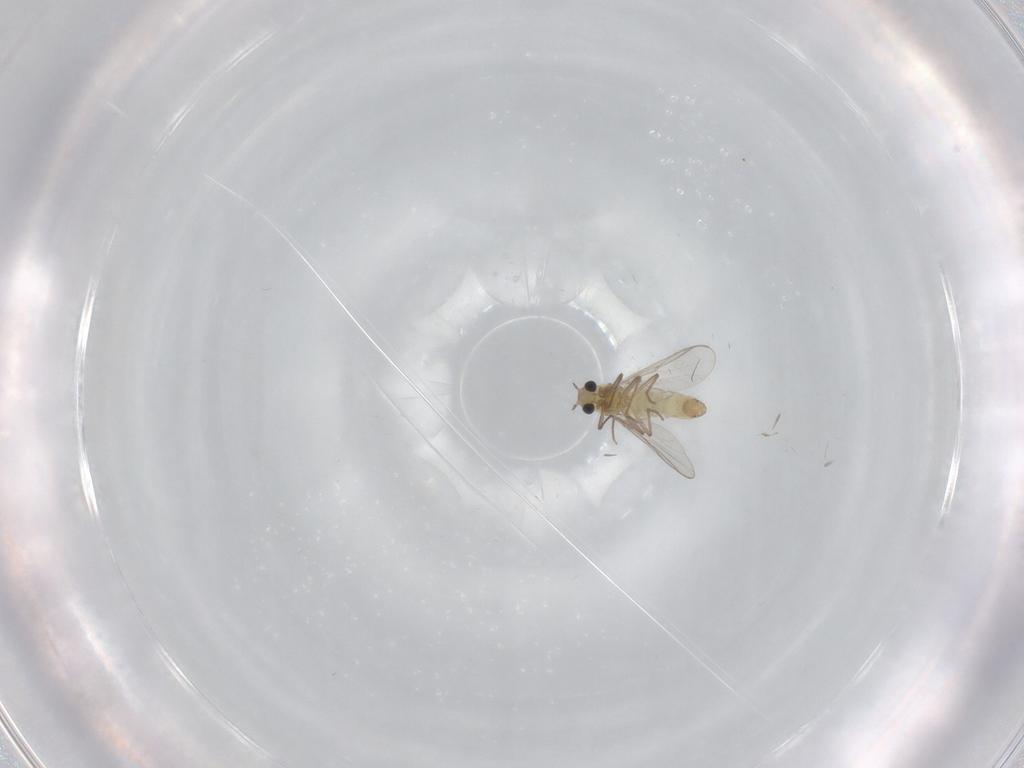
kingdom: Animalia
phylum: Arthropoda
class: Insecta
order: Diptera
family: Chironomidae
